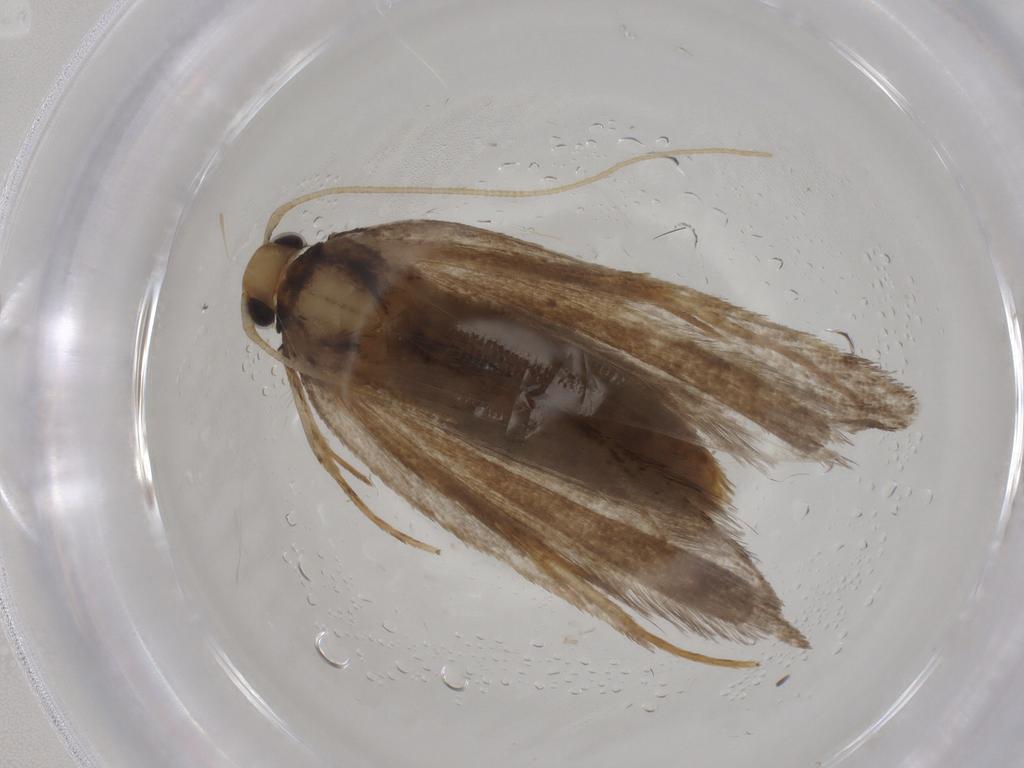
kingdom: Animalia
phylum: Arthropoda
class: Insecta
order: Lepidoptera
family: Lecithoceridae
